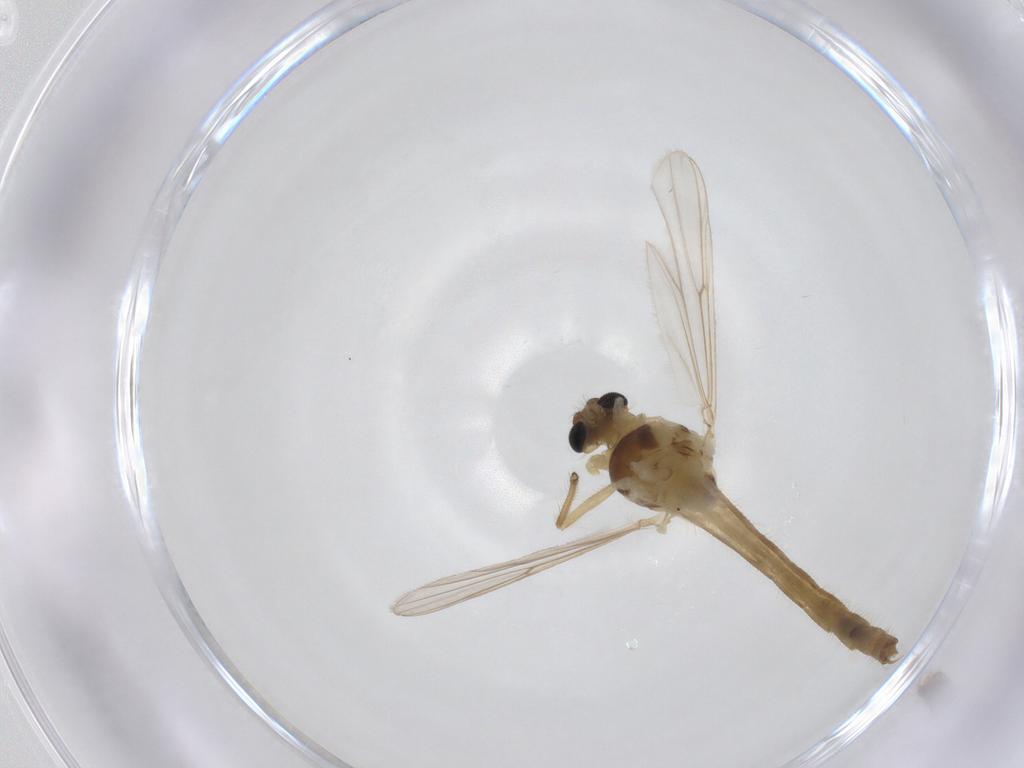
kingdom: Animalia
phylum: Arthropoda
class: Insecta
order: Diptera
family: Chironomidae
